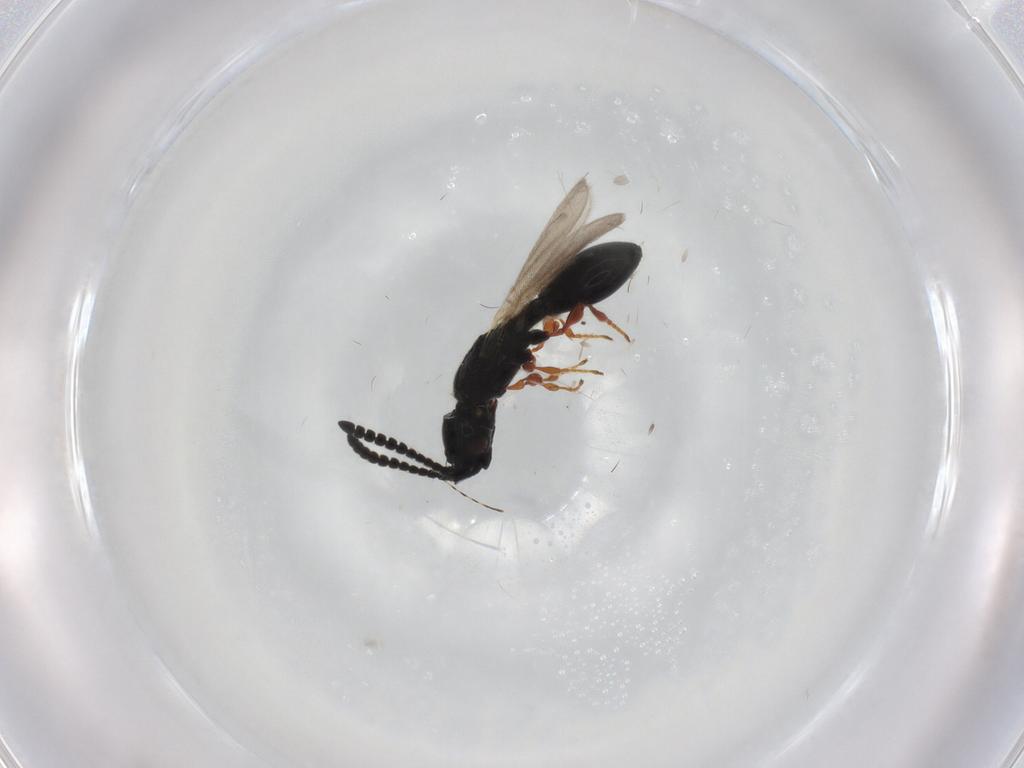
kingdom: Animalia
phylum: Arthropoda
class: Insecta
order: Hymenoptera
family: Diapriidae
